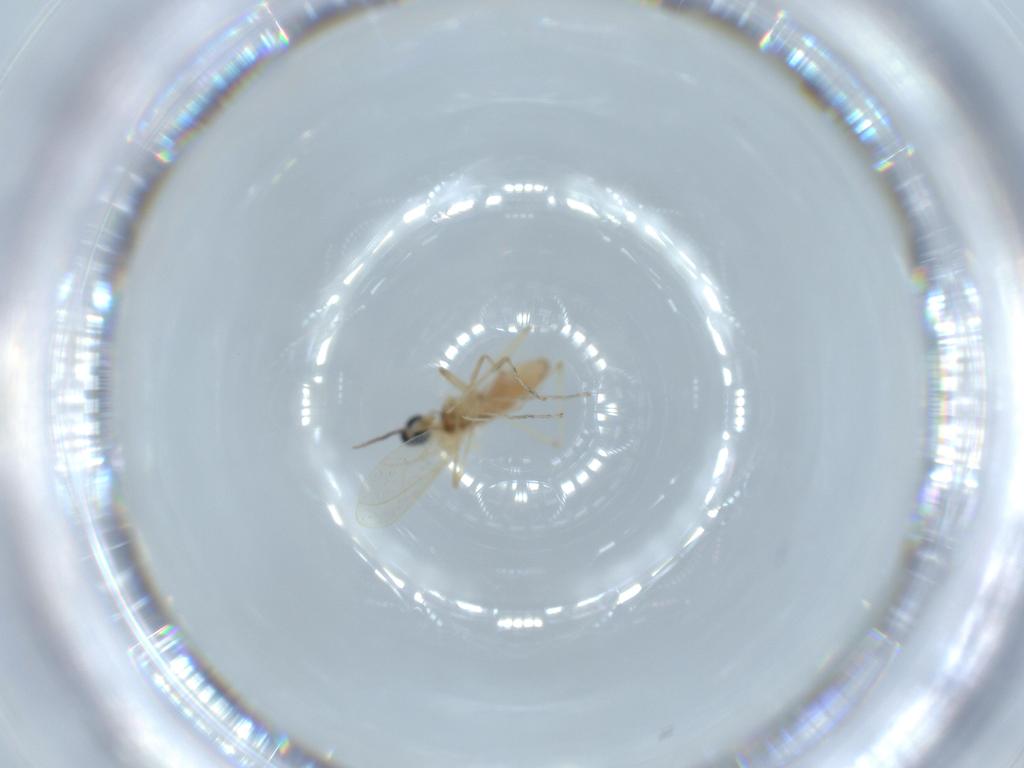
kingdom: Animalia
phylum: Arthropoda
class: Insecta
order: Diptera
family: Cecidomyiidae
